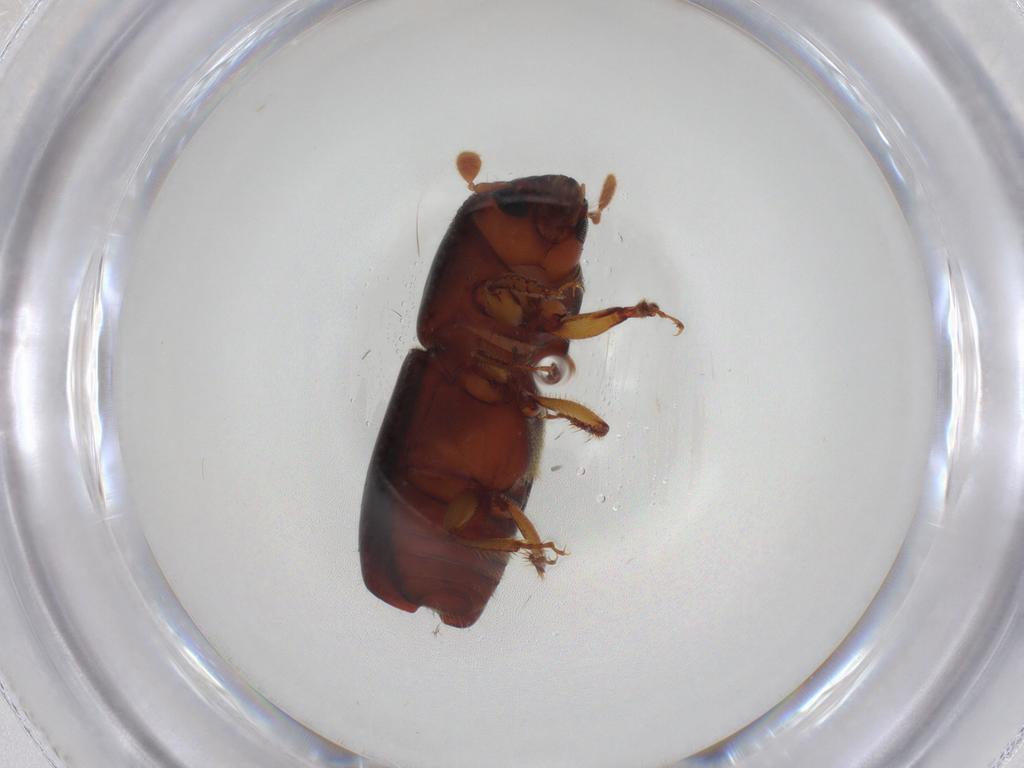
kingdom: Animalia
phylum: Arthropoda
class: Insecta
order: Coleoptera
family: Curculionidae
